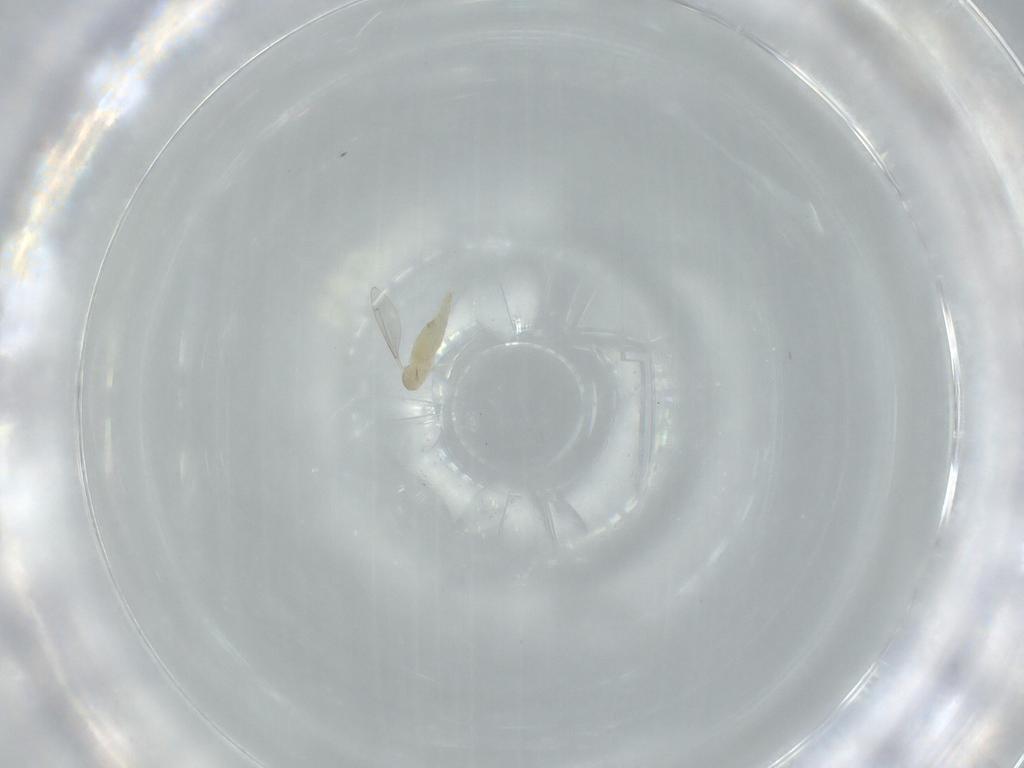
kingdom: Animalia
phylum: Arthropoda
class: Insecta
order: Diptera
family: Cecidomyiidae
